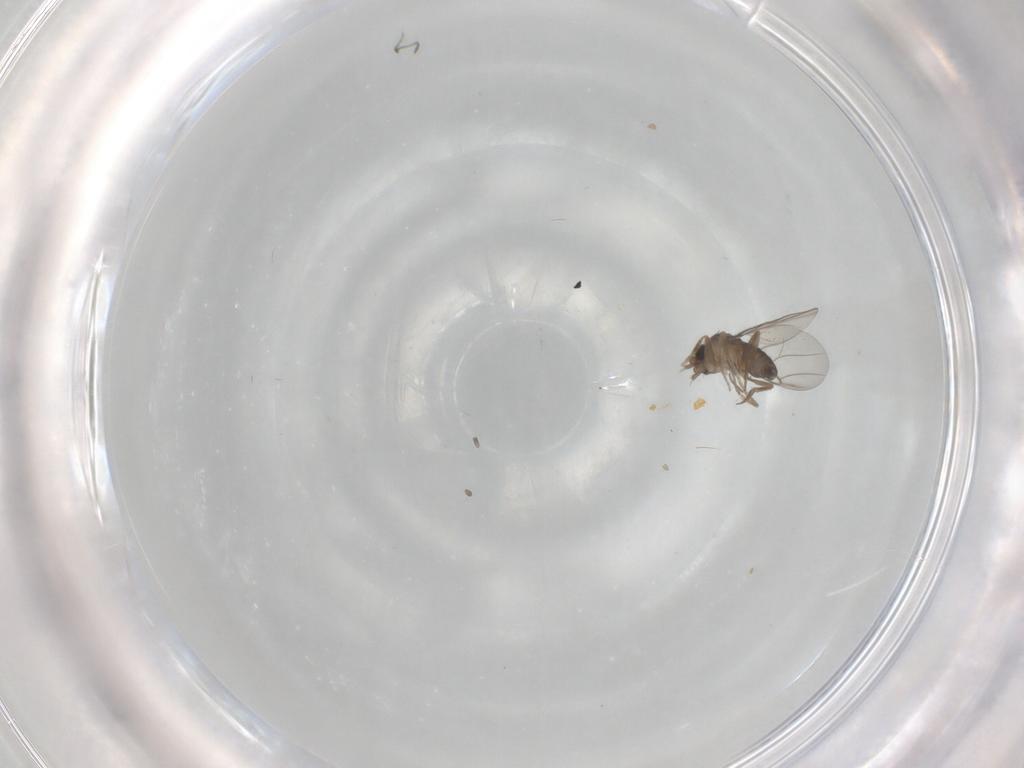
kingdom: Animalia
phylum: Arthropoda
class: Insecta
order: Diptera
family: Phoridae
